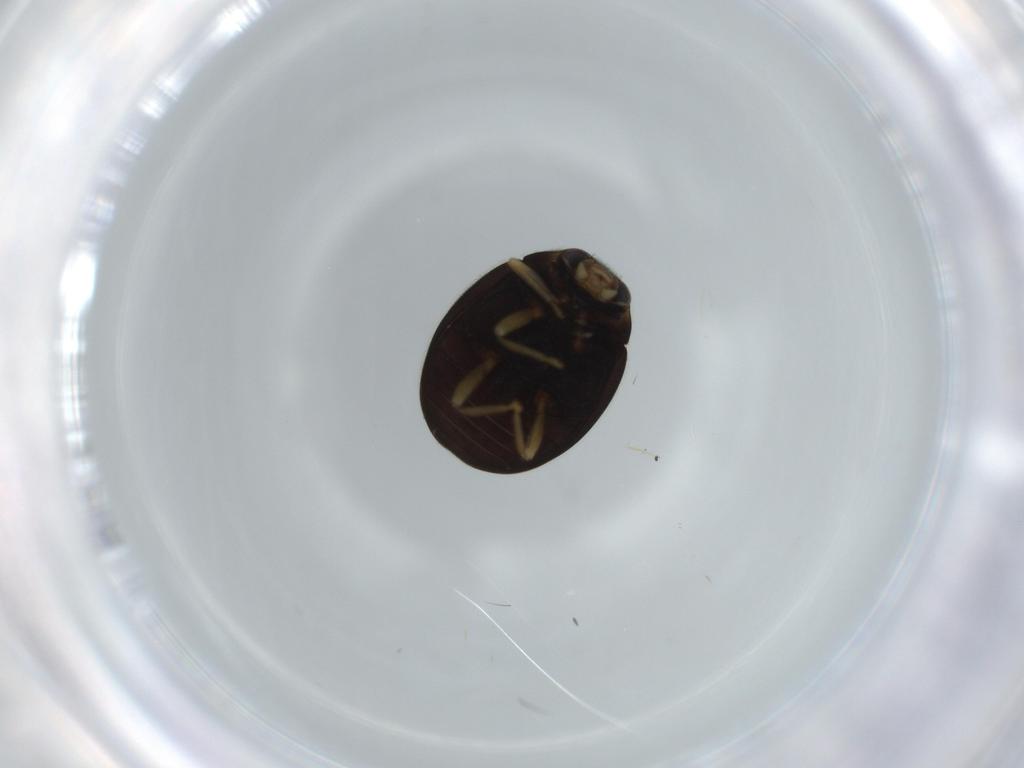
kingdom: Animalia
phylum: Arthropoda
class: Insecta
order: Coleoptera
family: Coccinellidae
